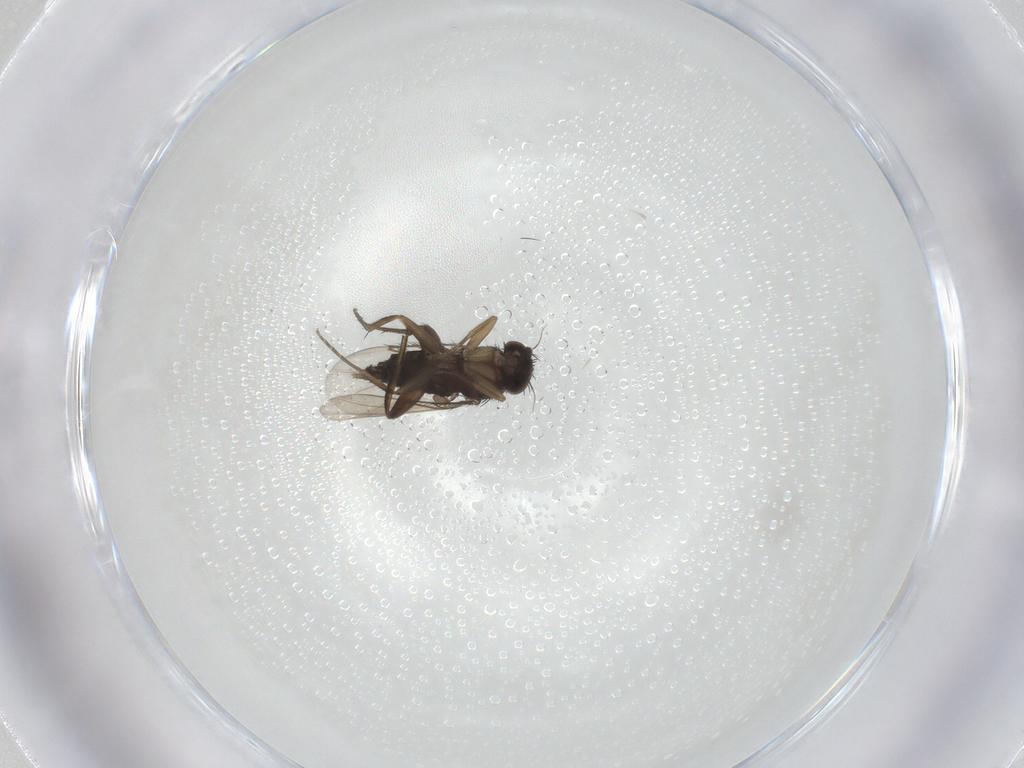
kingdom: Animalia
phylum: Arthropoda
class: Insecta
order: Diptera
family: Phoridae
